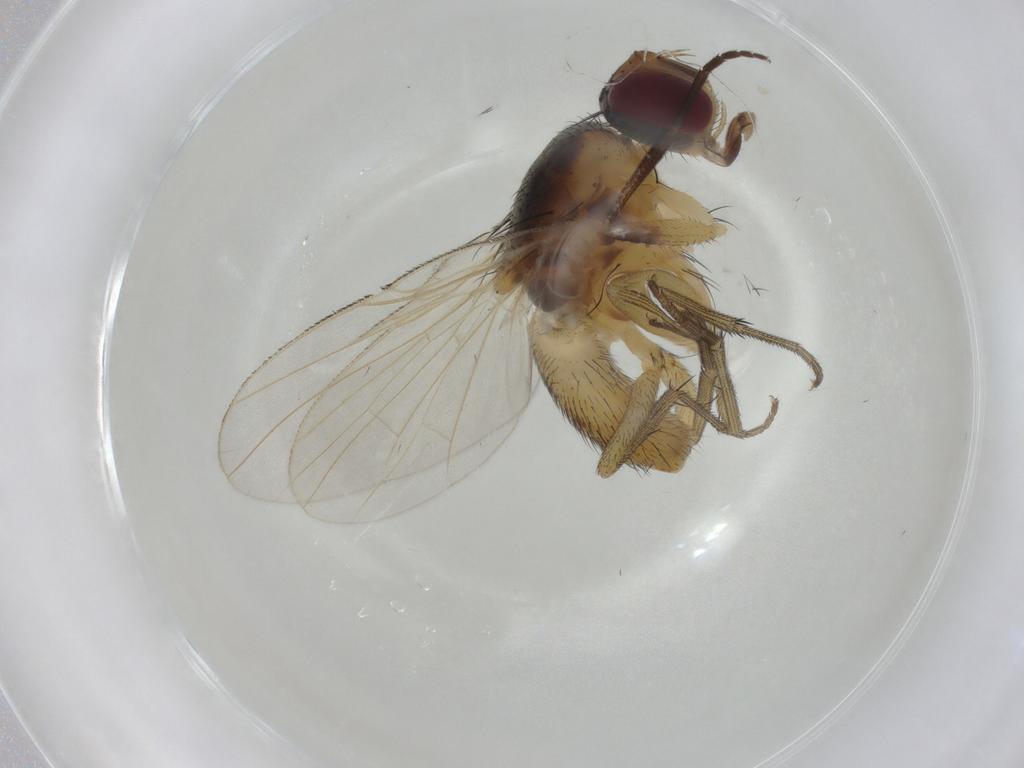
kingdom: Animalia
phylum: Arthropoda
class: Insecta
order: Diptera
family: Muscidae
